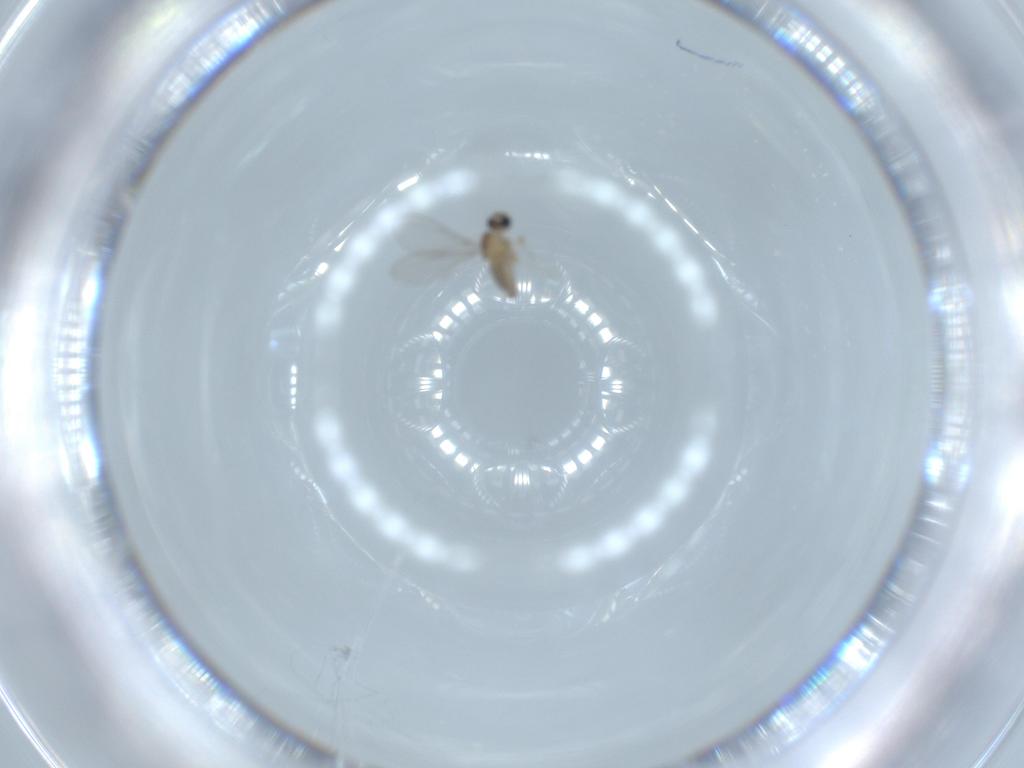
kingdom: Animalia
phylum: Arthropoda
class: Insecta
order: Diptera
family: Cecidomyiidae
